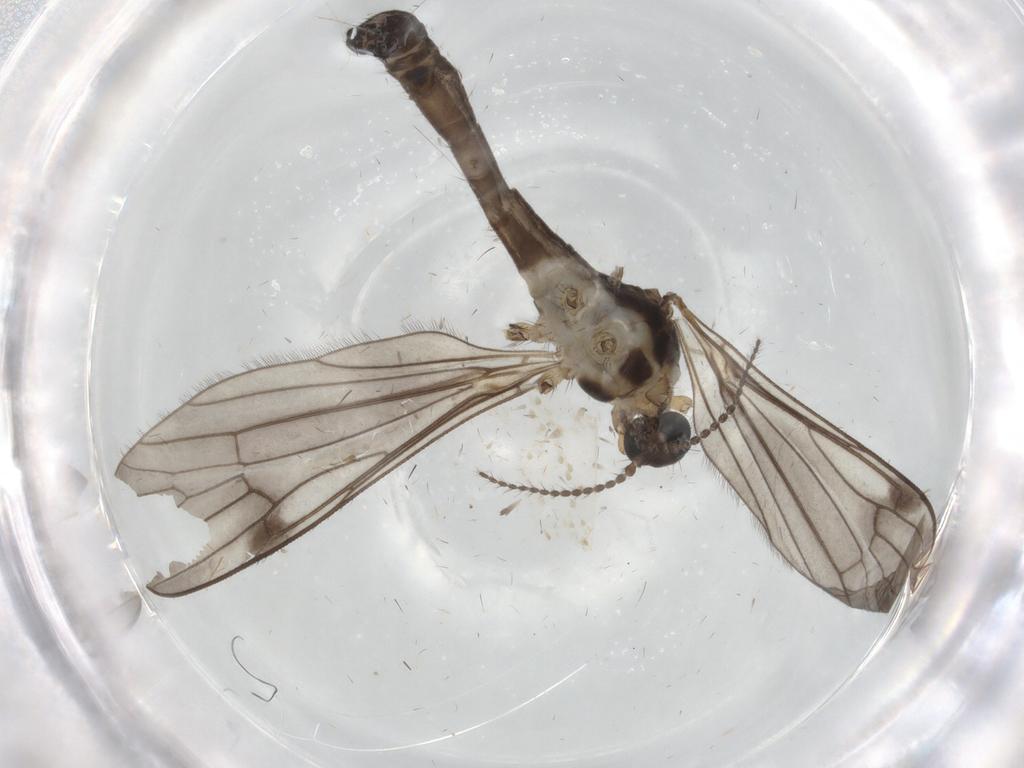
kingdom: Animalia
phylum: Arthropoda
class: Insecta
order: Diptera
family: Limoniidae
